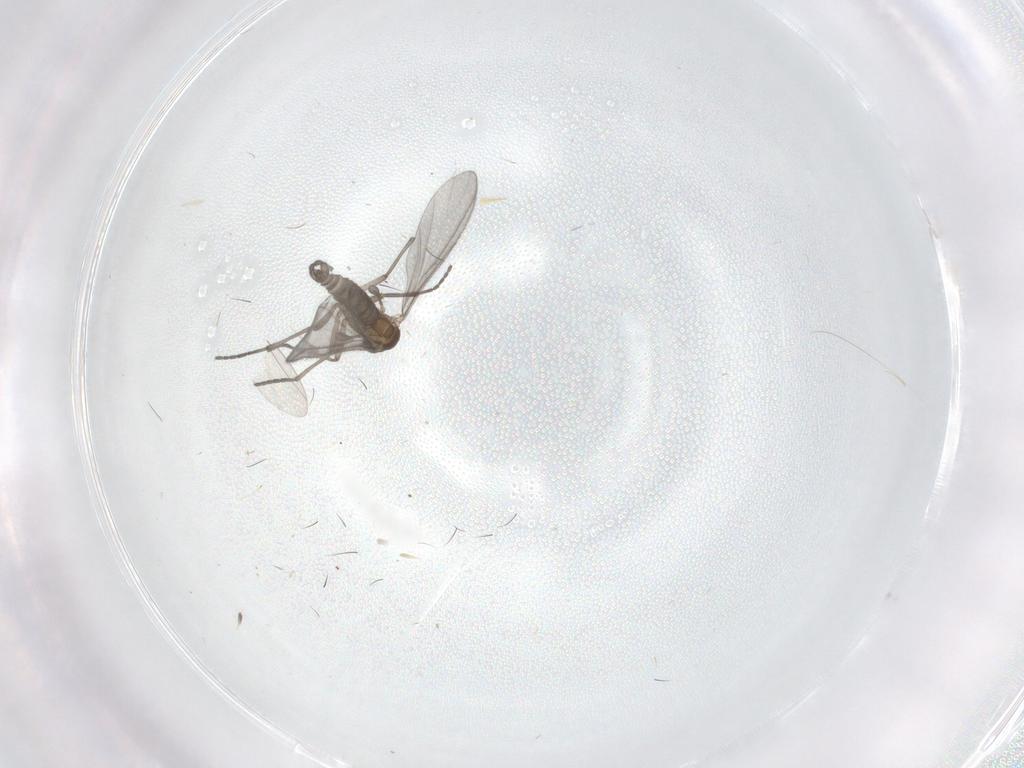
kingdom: Animalia
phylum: Arthropoda
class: Insecta
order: Diptera
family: Sciaridae
